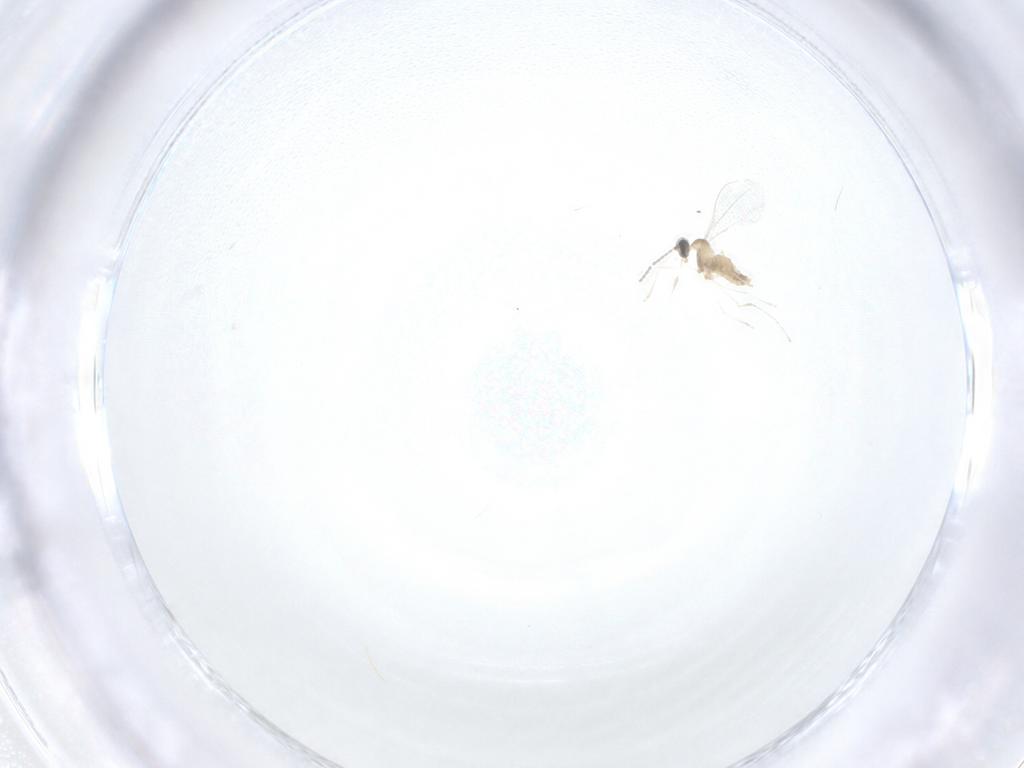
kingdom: Animalia
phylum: Arthropoda
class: Insecta
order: Diptera
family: Cecidomyiidae
